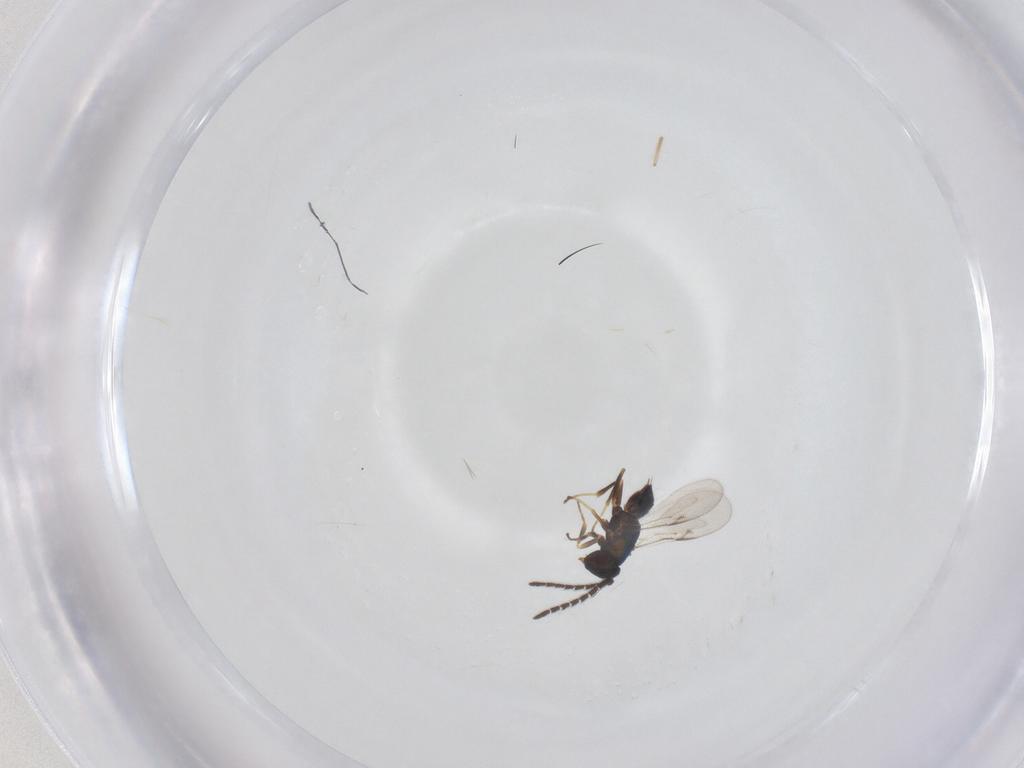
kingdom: Animalia
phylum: Arthropoda
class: Insecta
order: Hymenoptera
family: Encyrtidae
